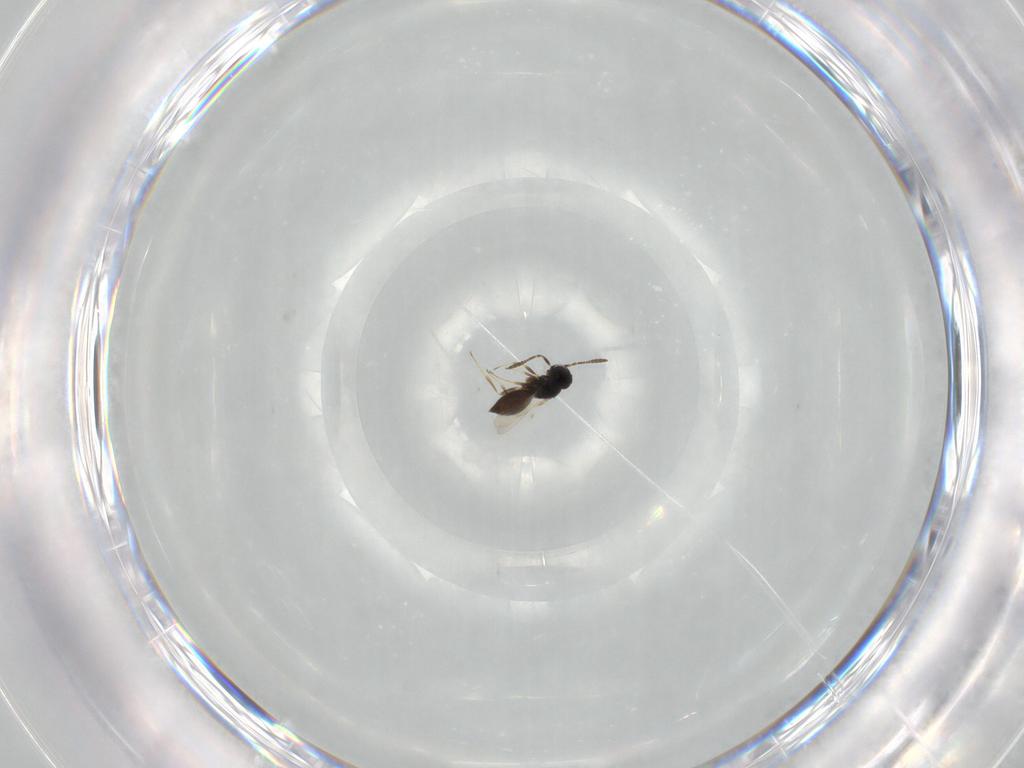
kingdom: Animalia
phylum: Arthropoda
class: Insecta
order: Hymenoptera
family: Scelionidae
